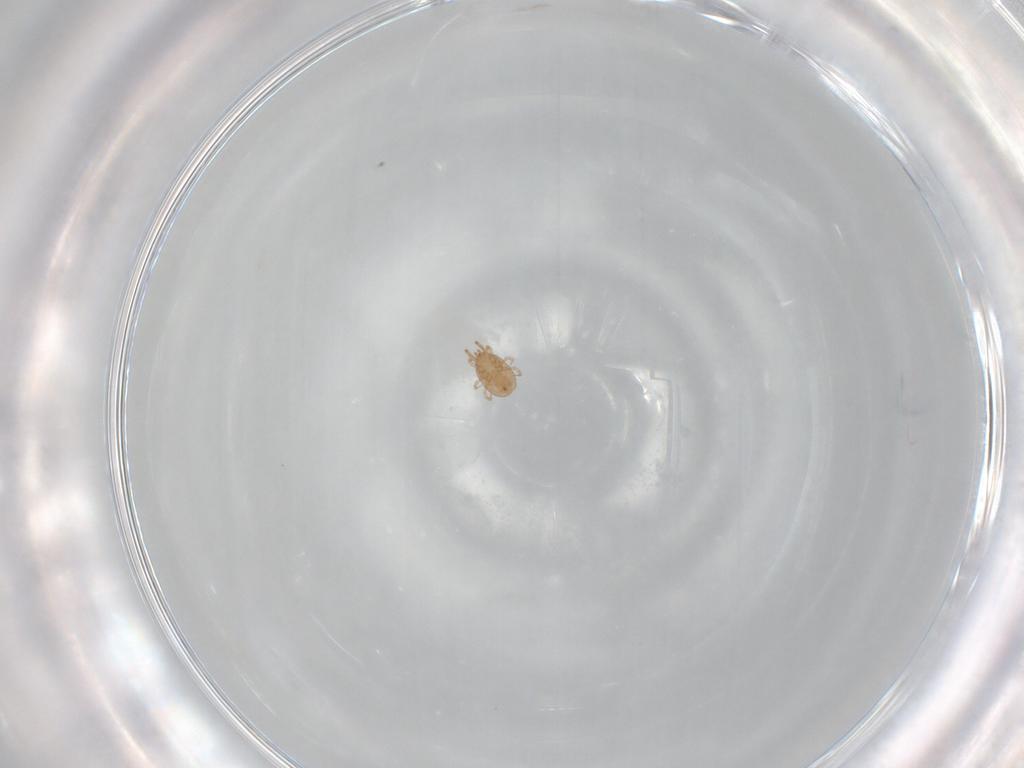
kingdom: Animalia
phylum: Arthropoda
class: Arachnida
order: Mesostigmata
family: Phytoseiidae
